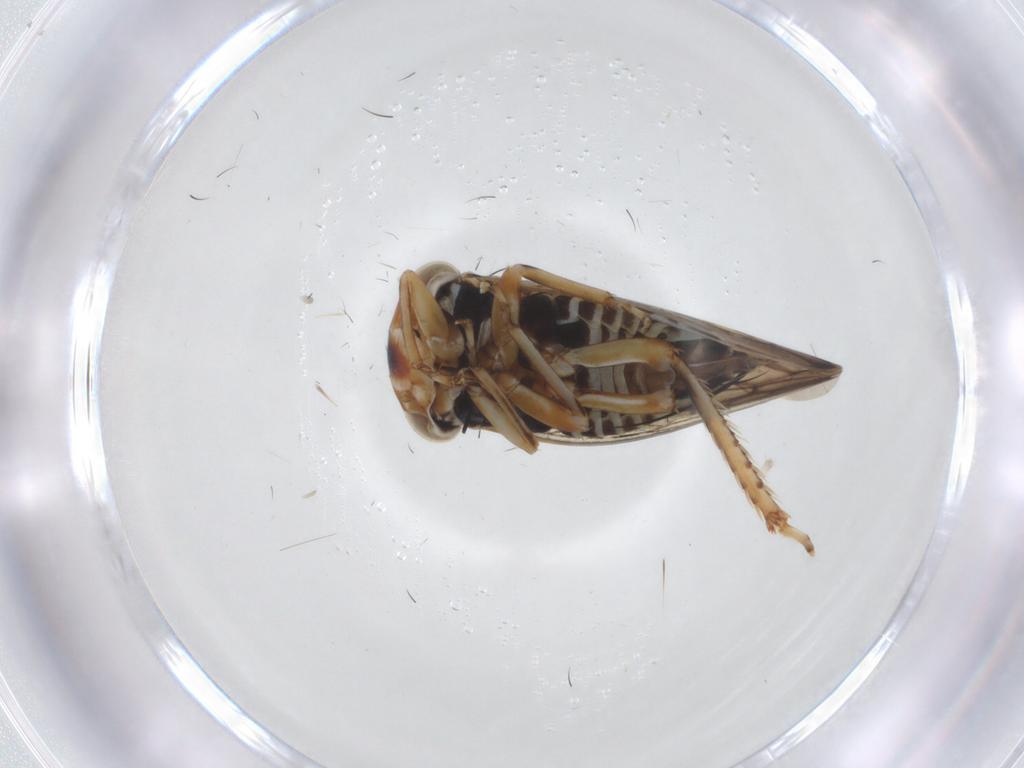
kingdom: Animalia
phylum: Arthropoda
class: Insecta
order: Hemiptera
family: Cicadellidae
